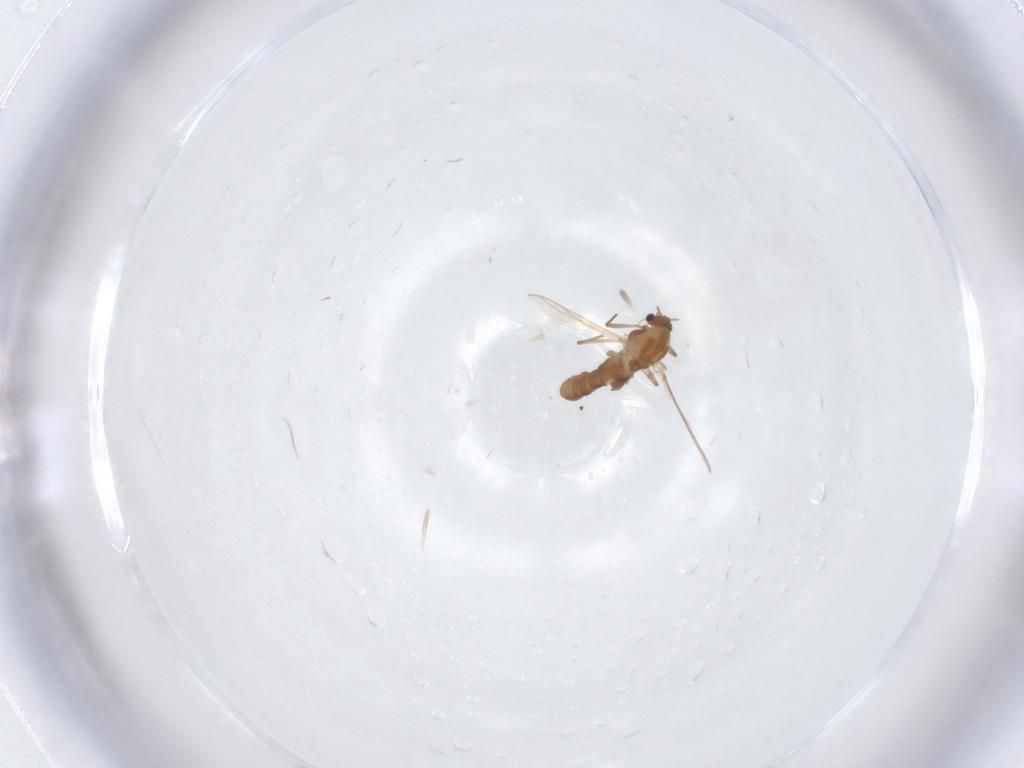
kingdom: Animalia
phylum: Arthropoda
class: Insecta
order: Diptera
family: Chironomidae
